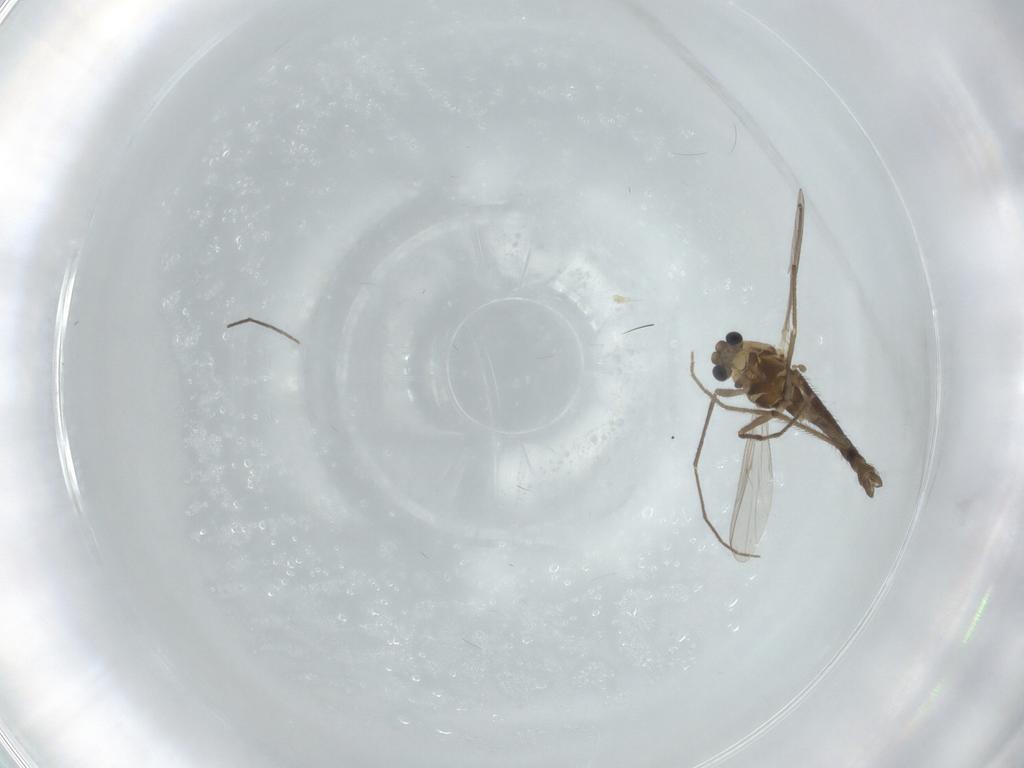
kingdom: Animalia
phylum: Arthropoda
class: Insecta
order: Diptera
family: Chironomidae
